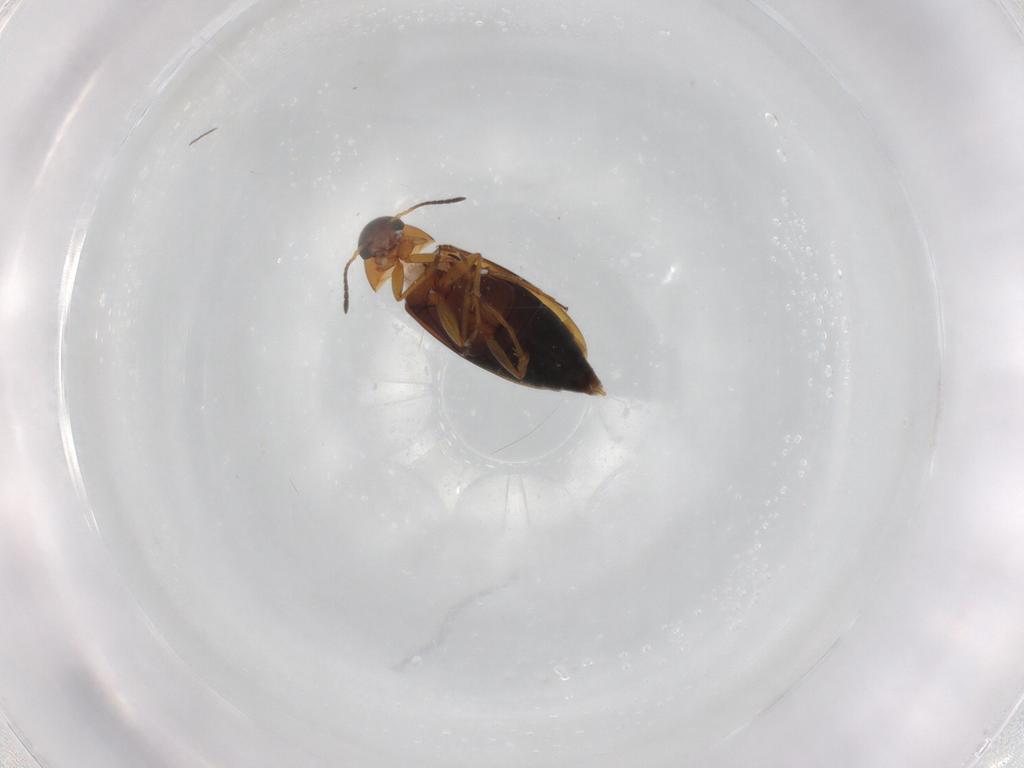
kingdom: Animalia
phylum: Arthropoda
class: Insecta
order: Coleoptera
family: Scraptiidae
